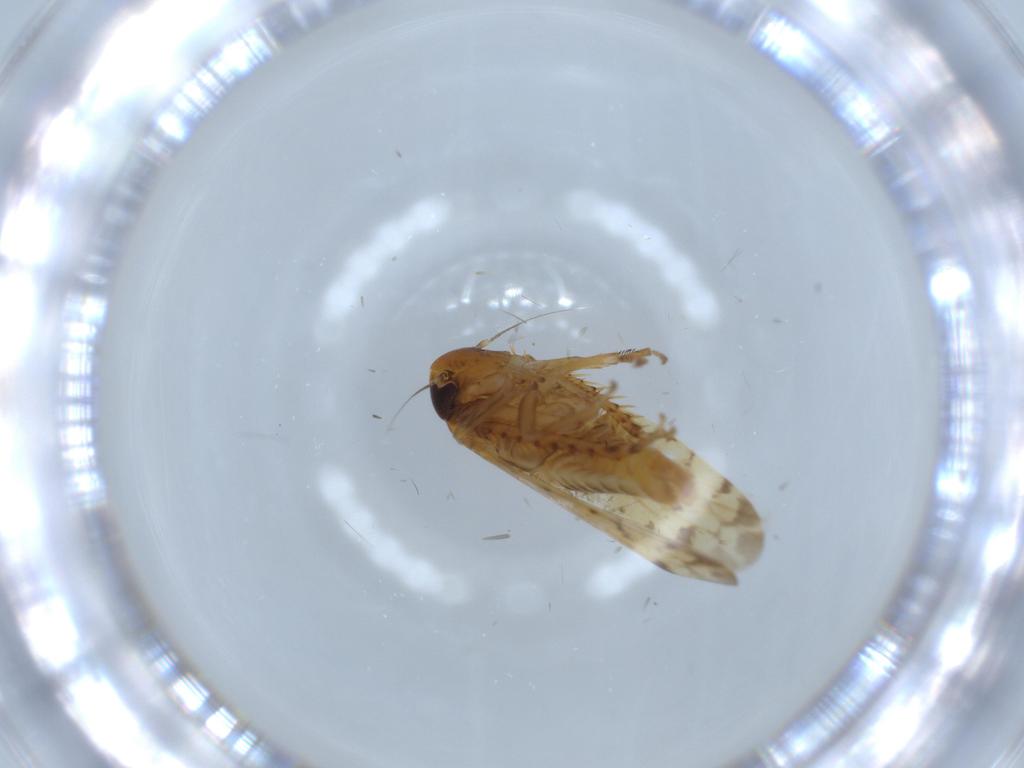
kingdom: Animalia
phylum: Arthropoda
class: Insecta
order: Hemiptera
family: Cicadellidae
